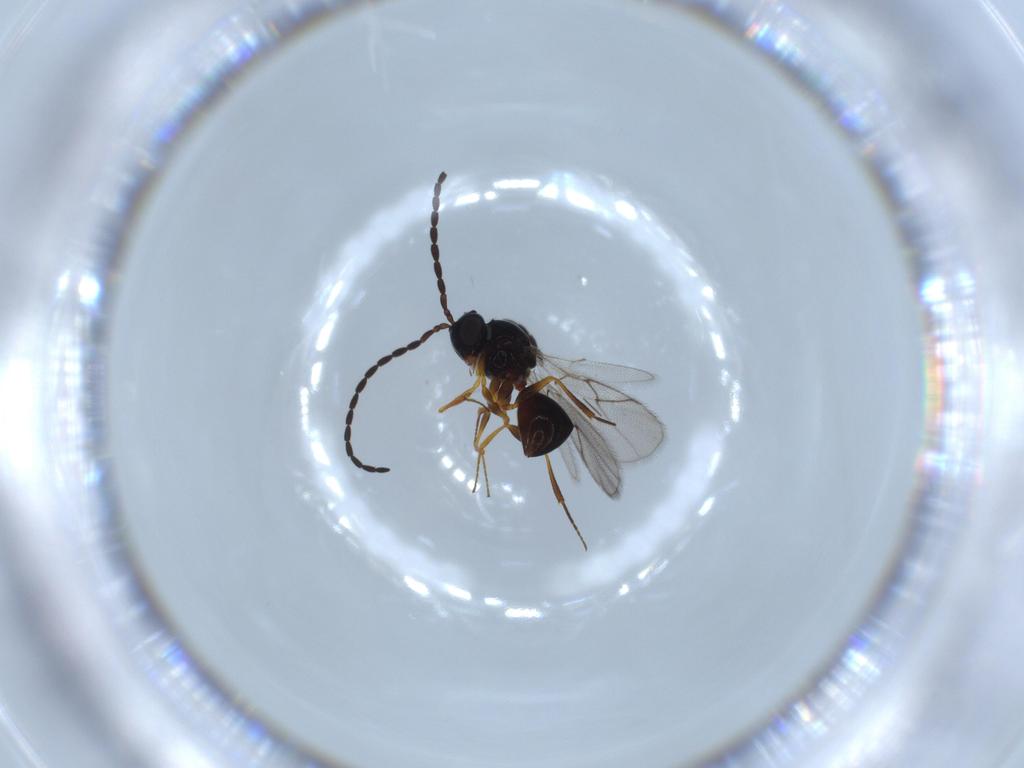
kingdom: Animalia
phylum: Arthropoda
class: Insecta
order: Hymenoptera
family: Figitidae
